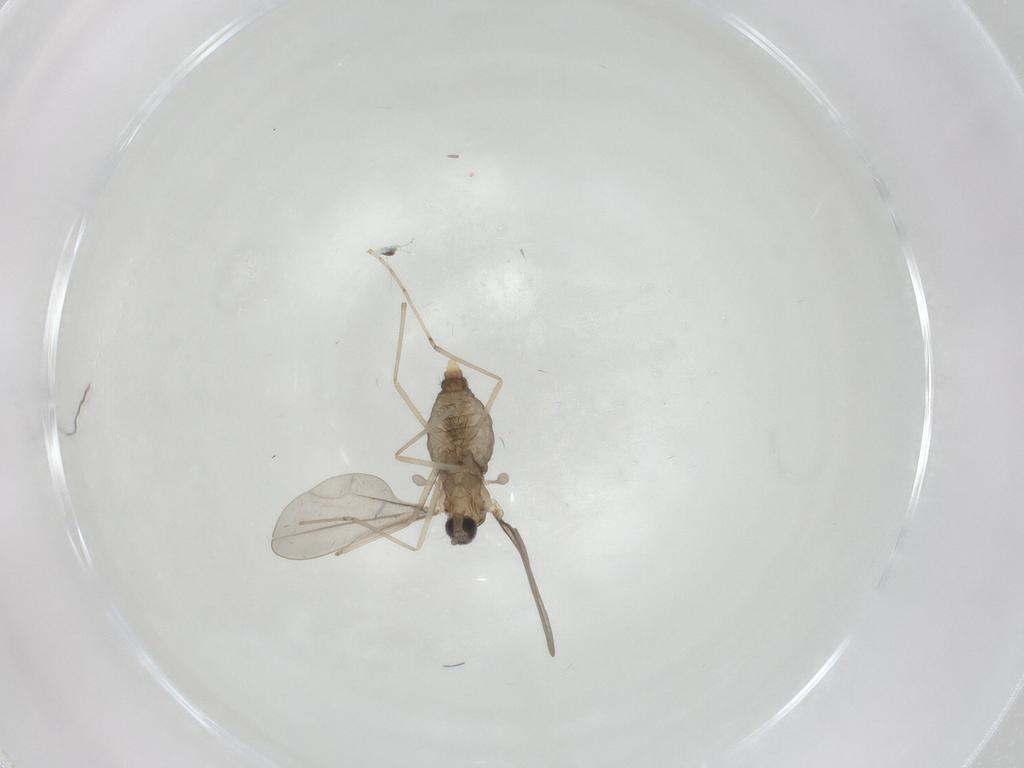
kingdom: Animalia
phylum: Arthropoda
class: Insecta
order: Diptera
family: Cecidomyiidae
